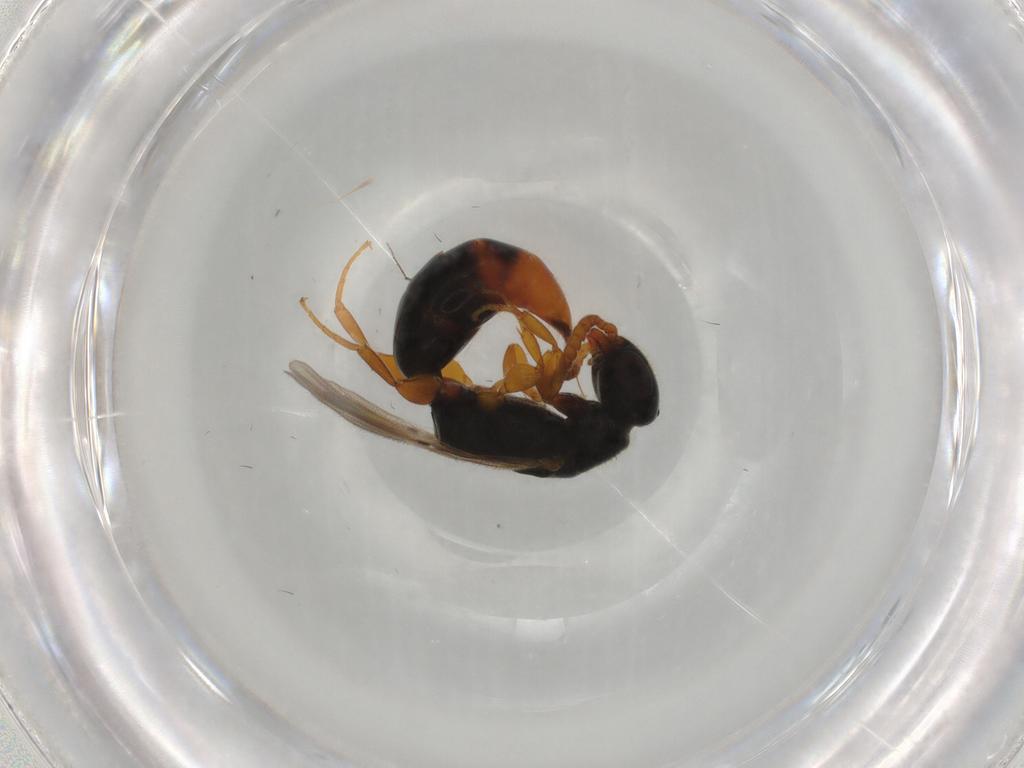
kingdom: Animalia
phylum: Arthropoda
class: Insecta
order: Hymenoptera
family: Bethylidae
